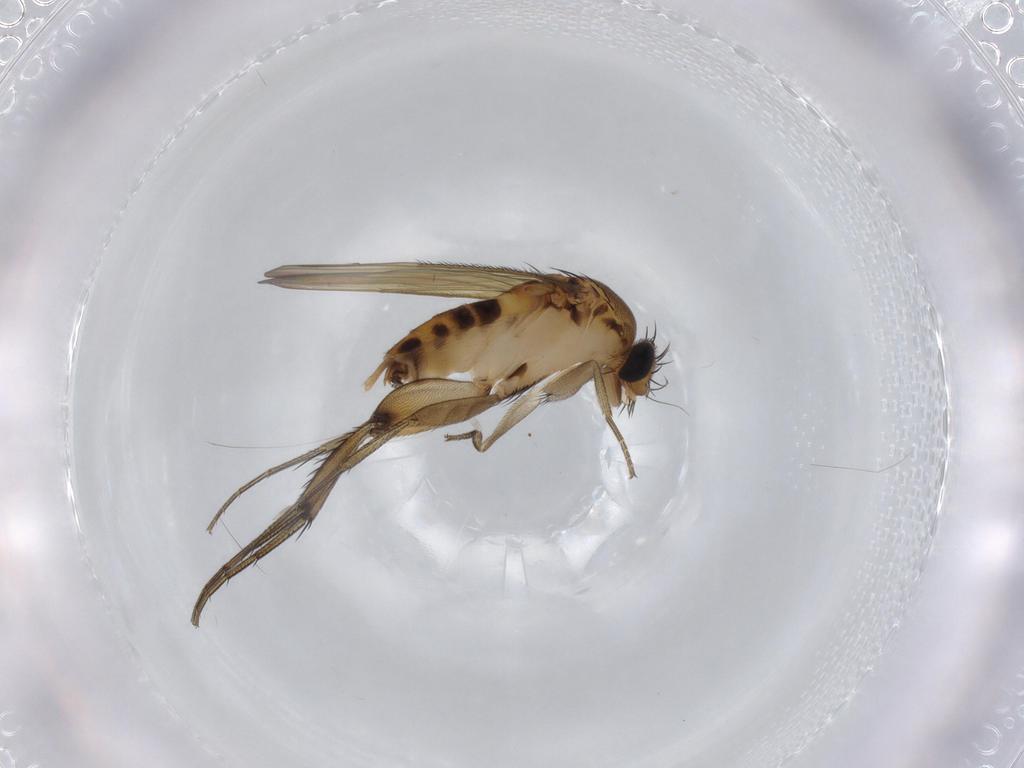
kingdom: Animalia
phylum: Arthropoda
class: Insecta
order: Diptera
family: Phoridae
